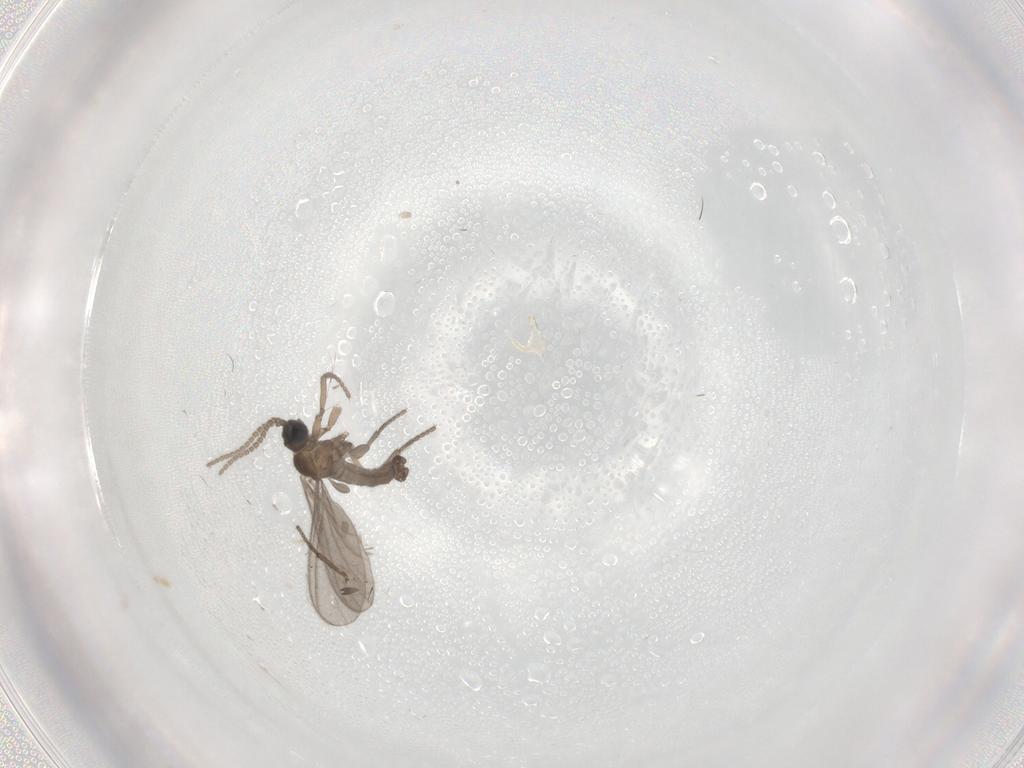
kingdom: Animalia
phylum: Arthropoda
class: Insecta
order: Diptera
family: Sciaridae
